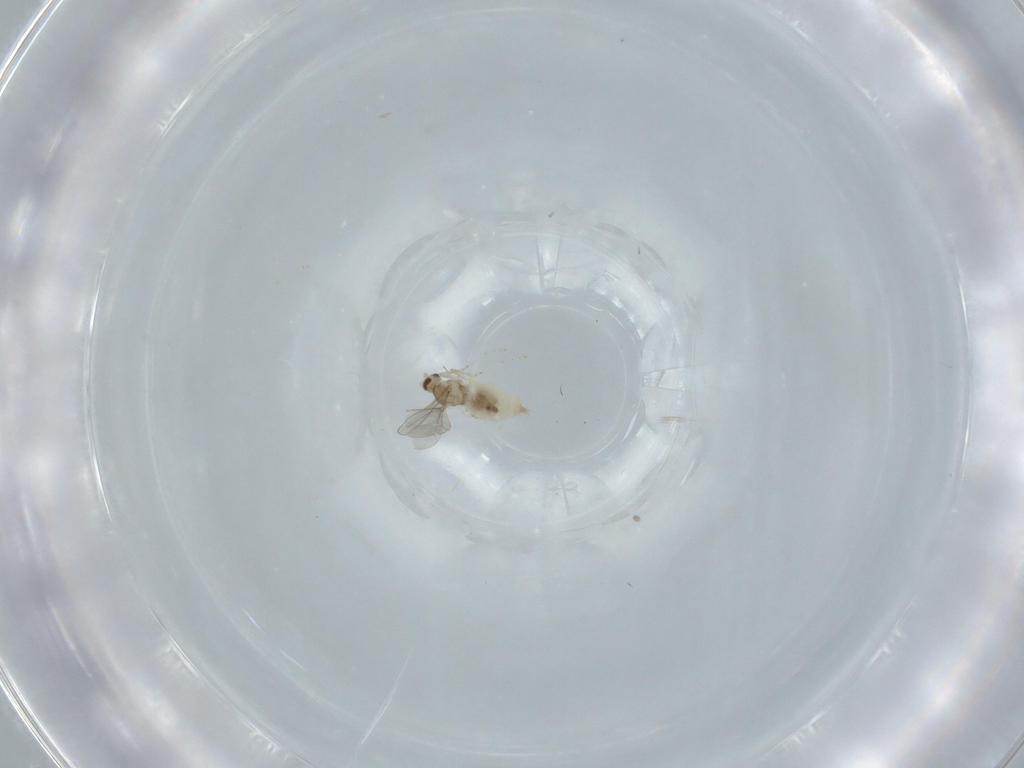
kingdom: Animalia
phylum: Arthropoda
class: Insecta
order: Diptera
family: Cecidomyiidae
